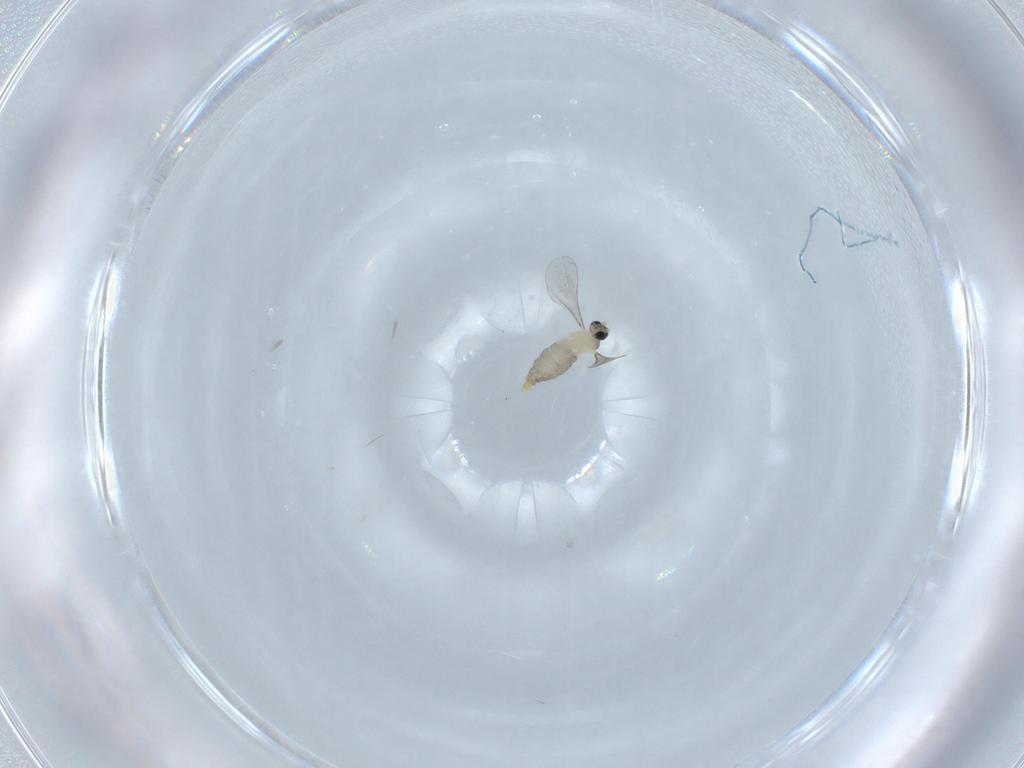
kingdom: Animalia
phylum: Arthropoda
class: Insecta
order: Diptera
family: Cecidomyiidae
